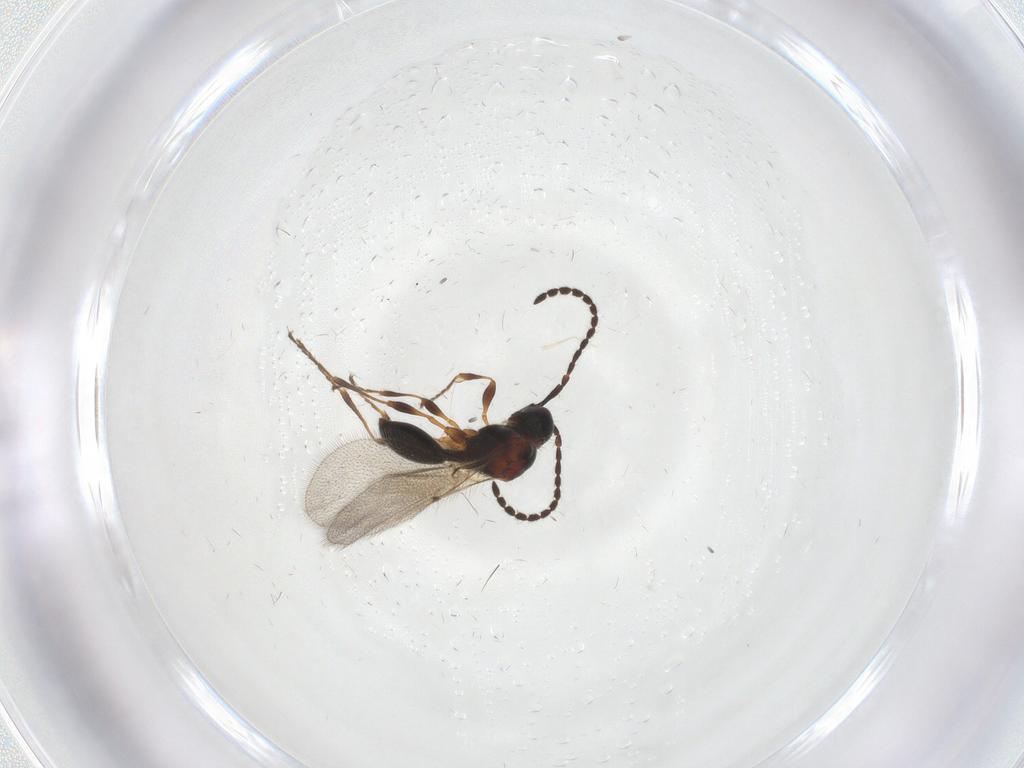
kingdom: Animalia
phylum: Arthropoda
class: Insecta
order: Hymenoptera
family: Diapriidae
